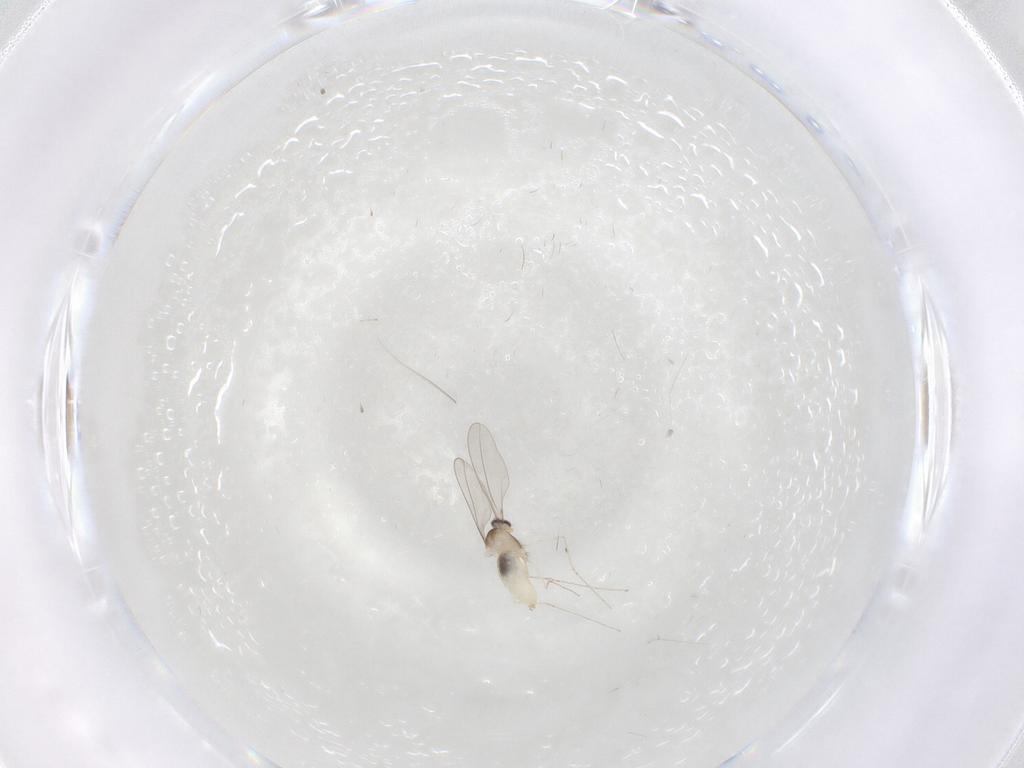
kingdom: Animalia
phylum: Arthropoda
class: Insecta
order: Diptera
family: Cecidomyiidae
